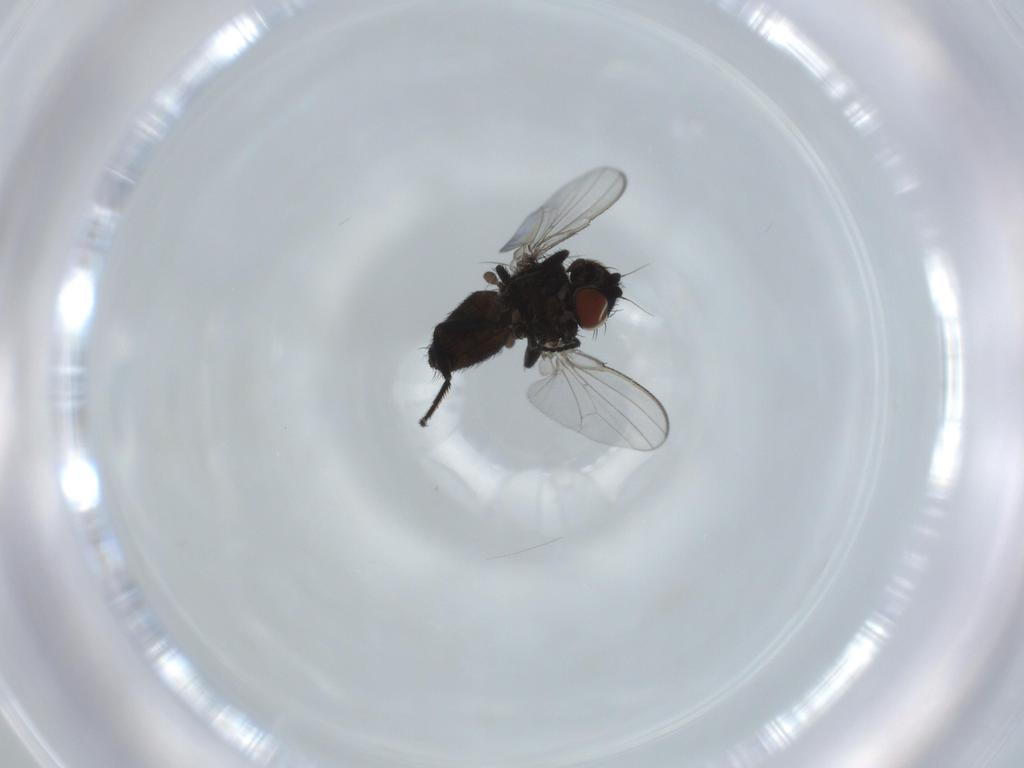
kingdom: Animalia
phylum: Arthropoda
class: Insecta
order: Diptera
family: Milichiidae
